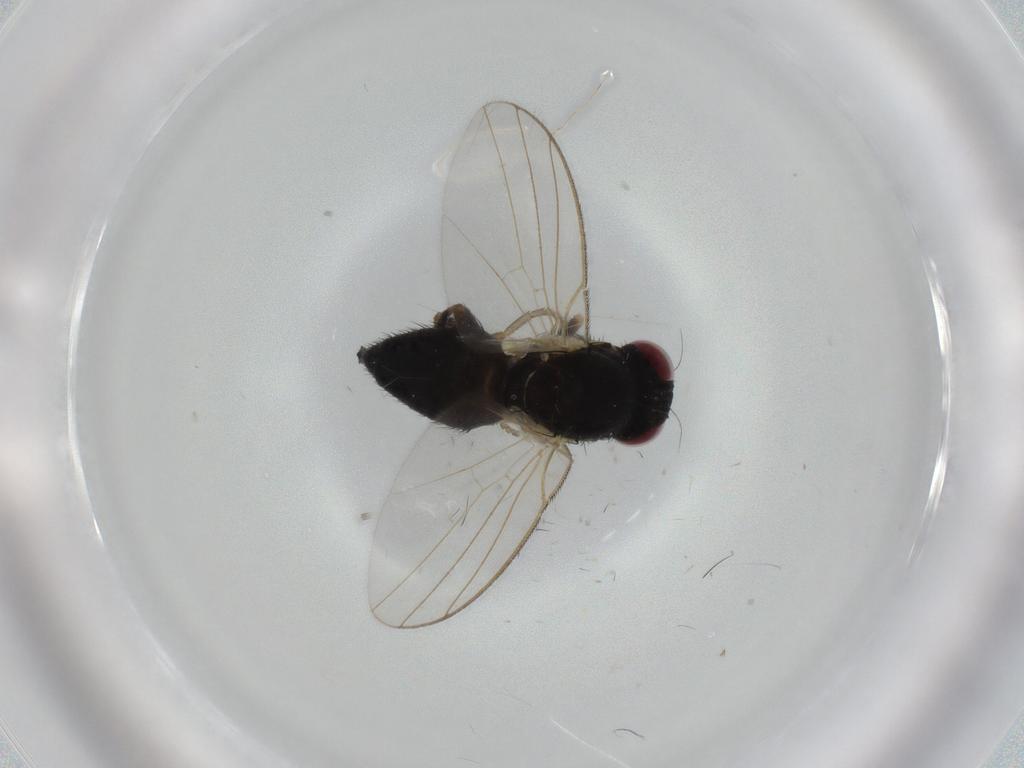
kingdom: Animalia
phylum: Arthropoda
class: Insecta
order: Diptera
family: Agromyzidae
